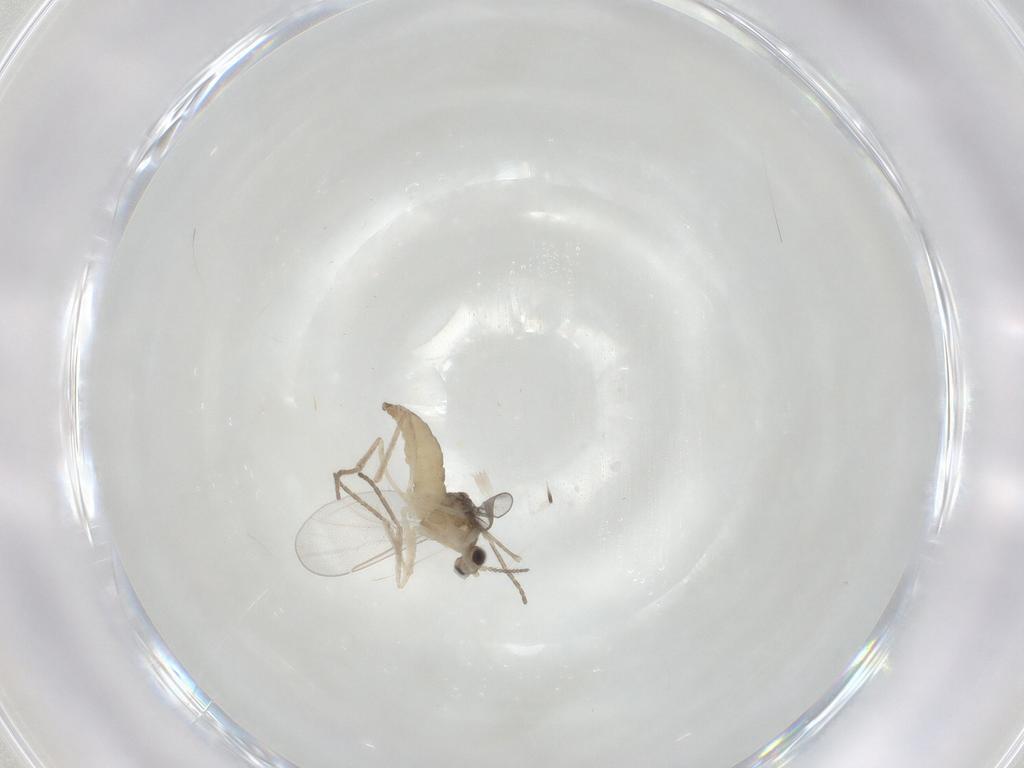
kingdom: Animalia
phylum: Arthropoda
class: Insecta
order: Diptera
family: Cecidomyiidae
